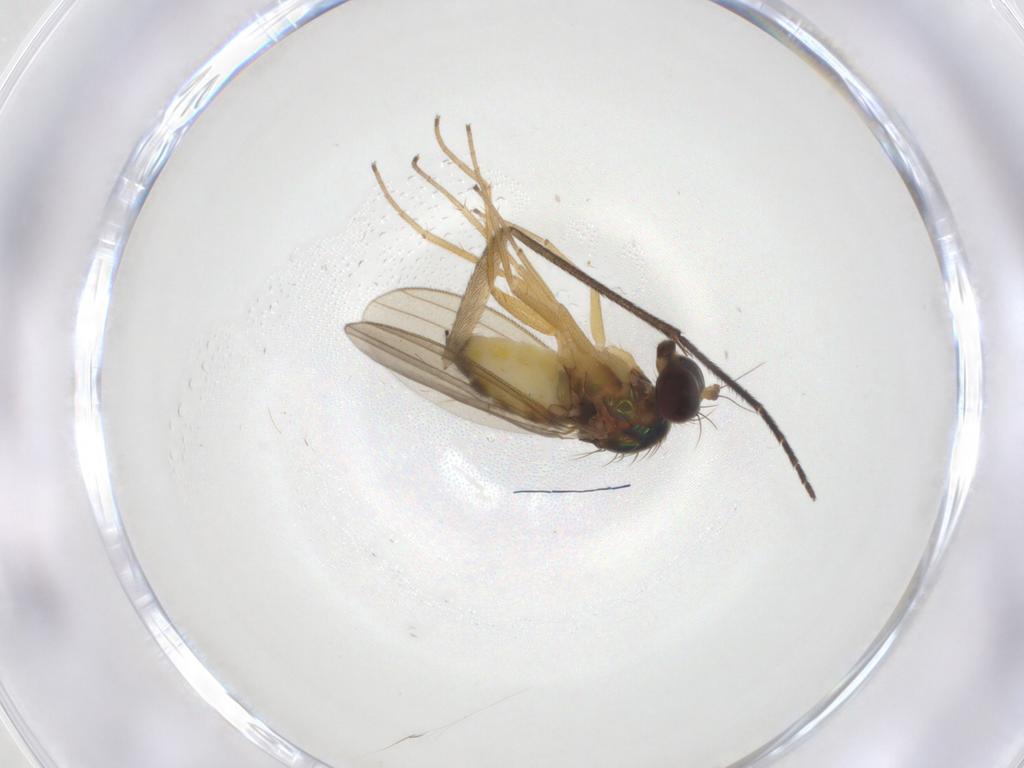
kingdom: Animalia
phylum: Arthropoda
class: Insecta
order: Diptera
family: Dolichopodidae
